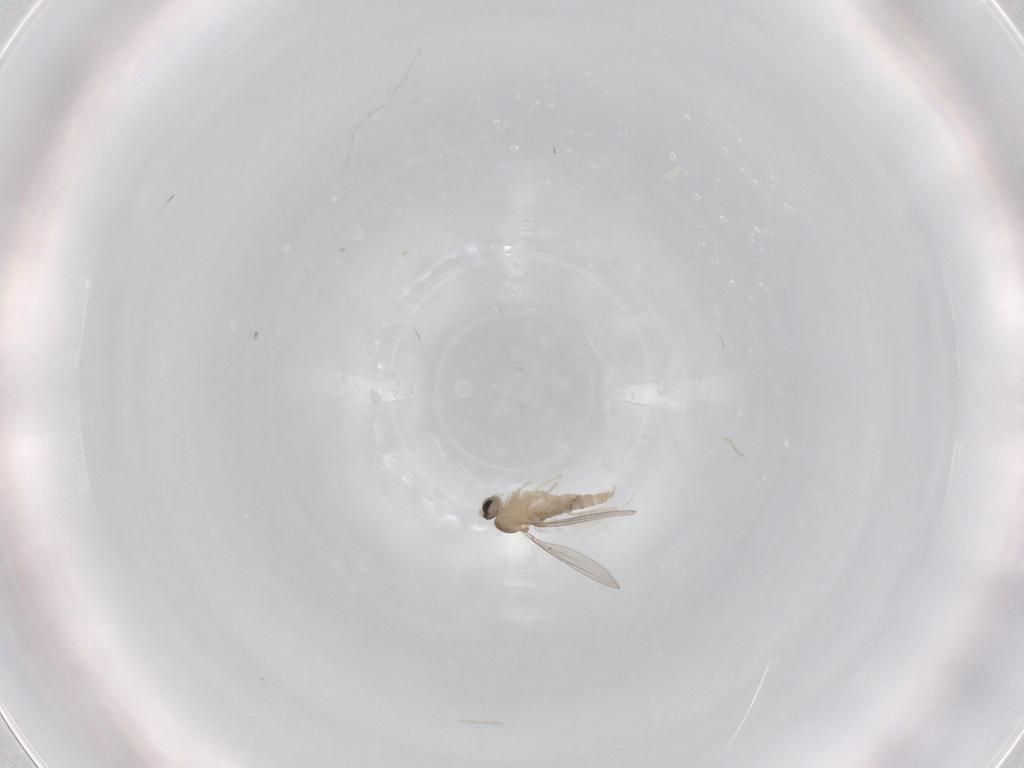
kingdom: Animalia
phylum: Arthropoda
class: Insecta
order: Diptera
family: Cecidomyiidae
